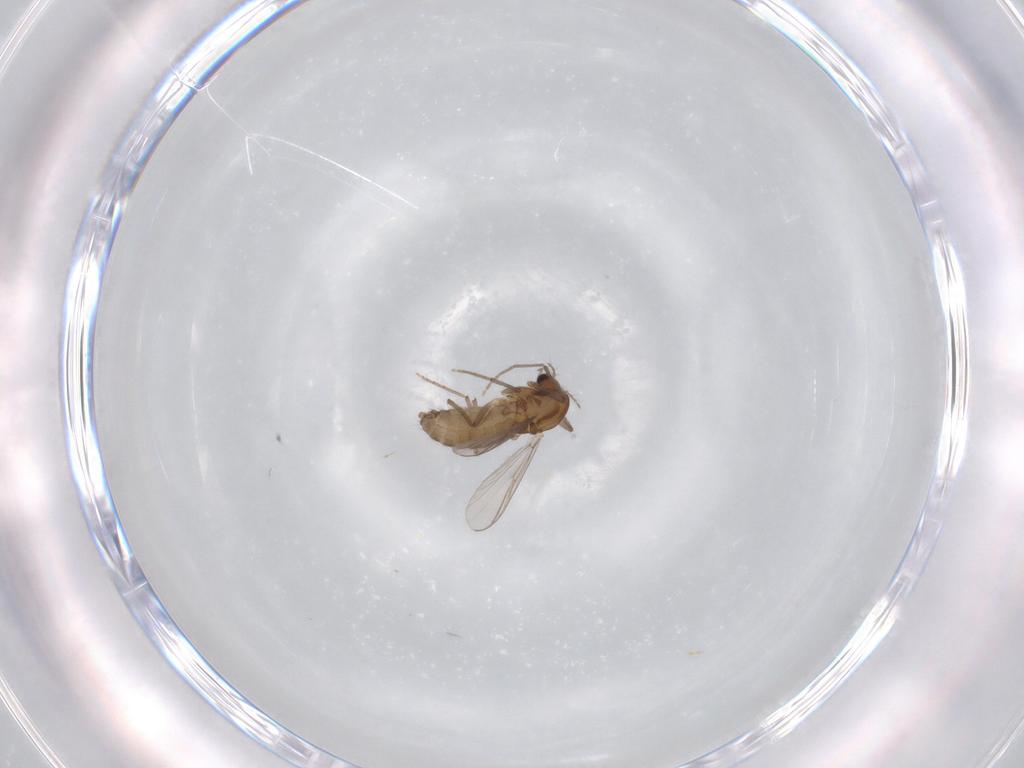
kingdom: Animalia
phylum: Arthropoda
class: Insecta
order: Diptera
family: Chironomidae
